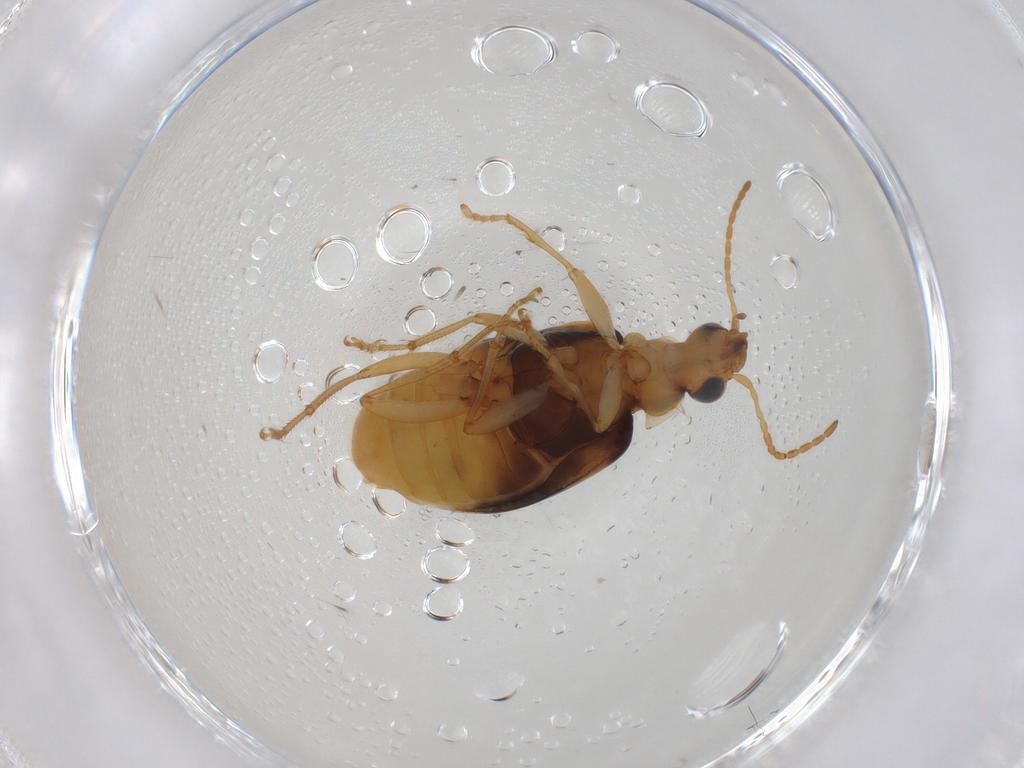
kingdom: Animalia
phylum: Arthropoda
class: Insecta
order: Coleoptera
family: Carabidae
